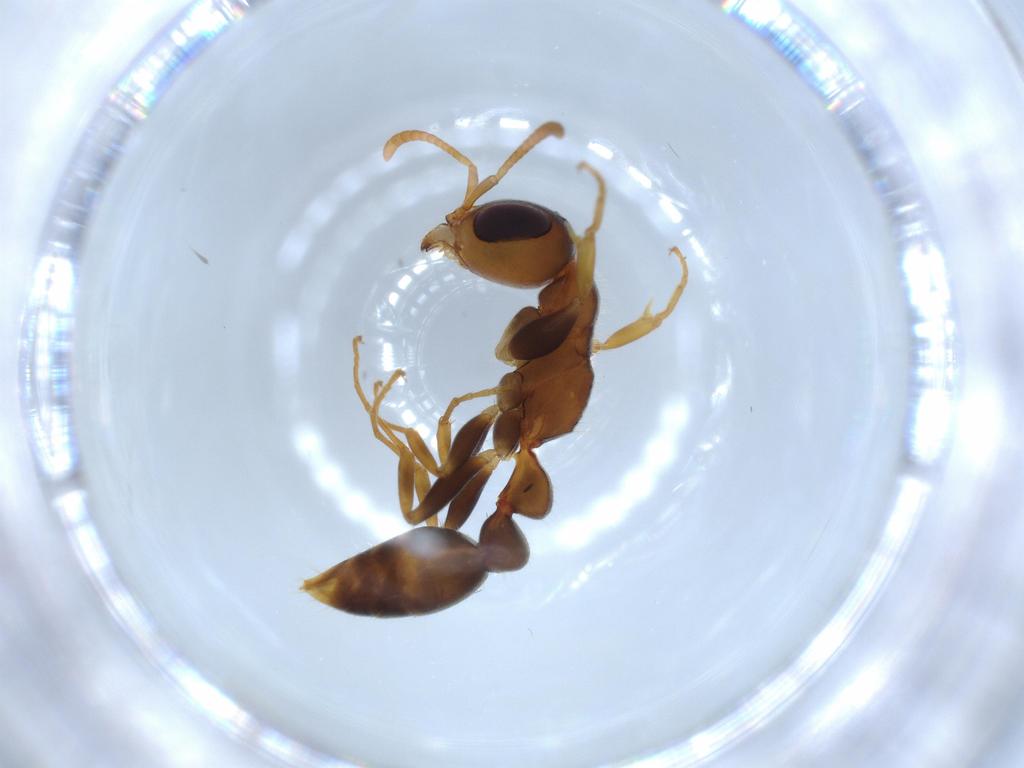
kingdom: Animalia
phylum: Arthropoda
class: Insecta
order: Hymenoptera
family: Formicidae
